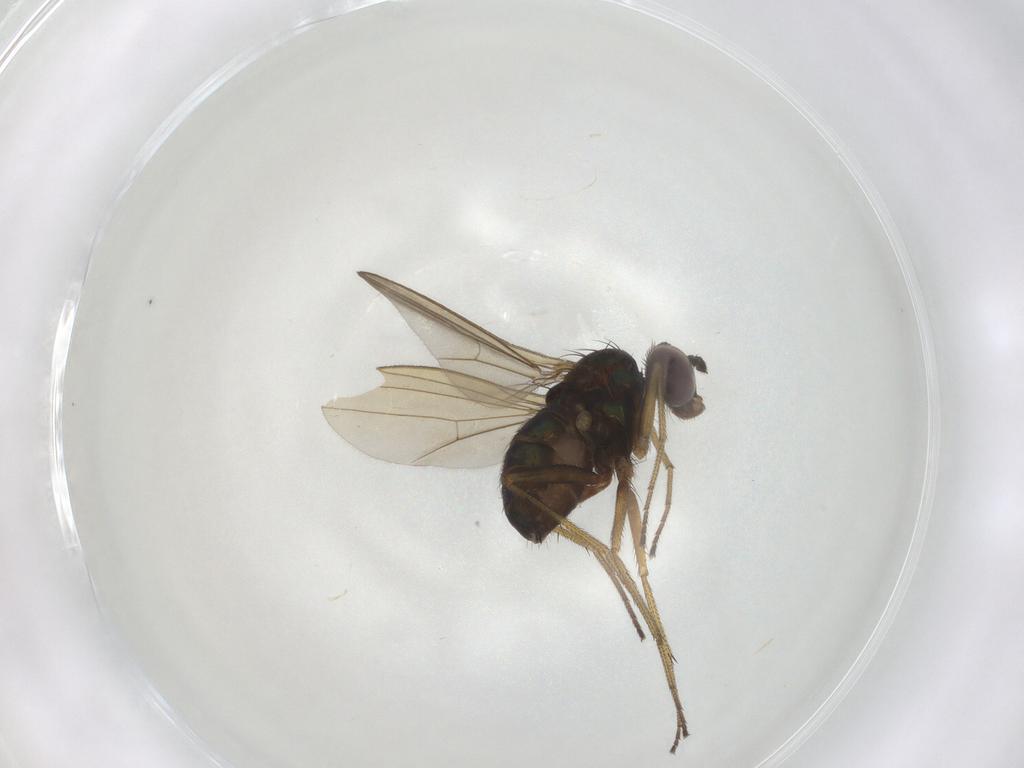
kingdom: Animalia
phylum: Arthropoda
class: Insecta
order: Diptera
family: Dolichopodidae
